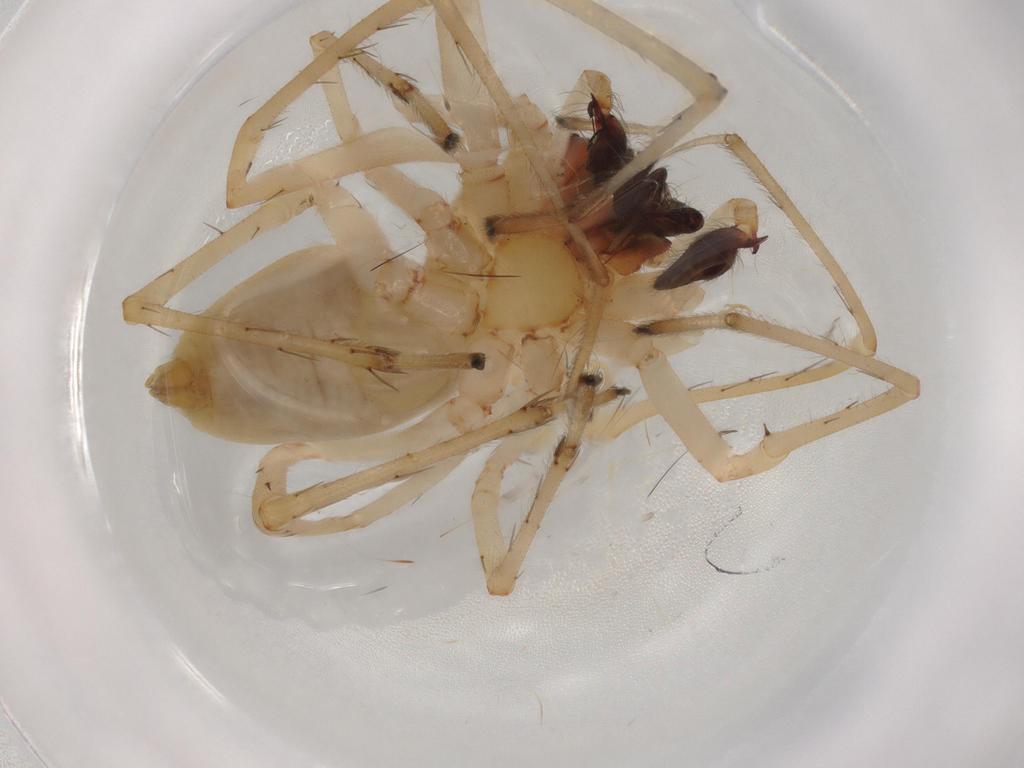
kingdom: Animalia
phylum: Arthropoda
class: Arachnida
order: Araneae
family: Cheiracanthiidae
